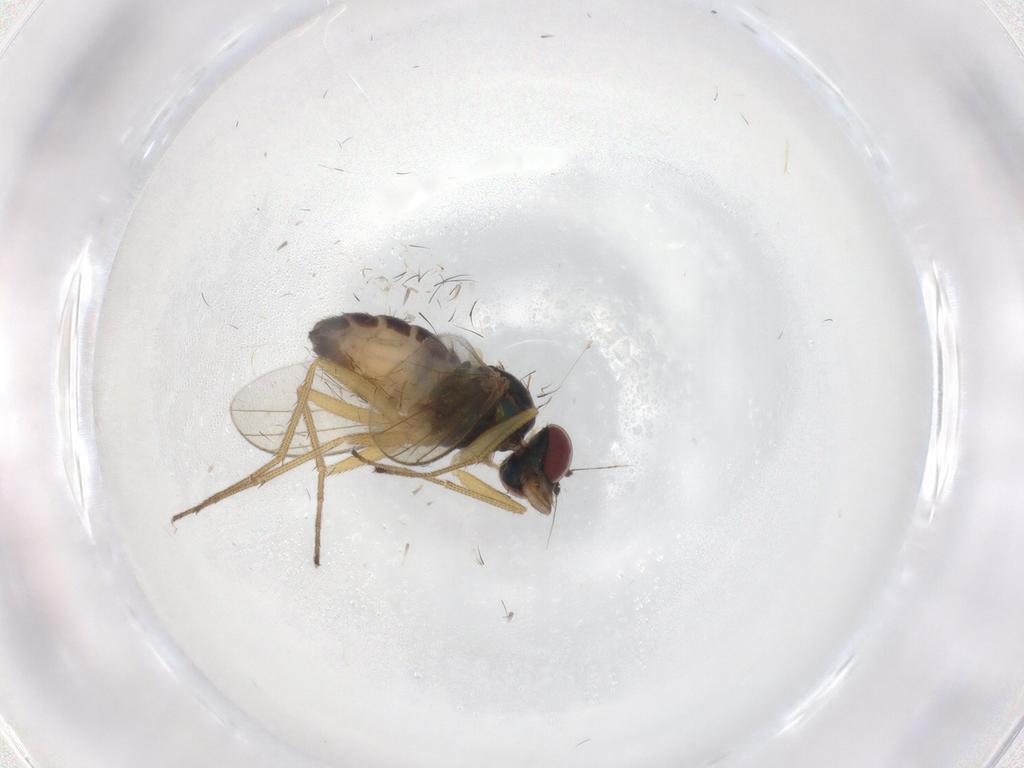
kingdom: Animalia
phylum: Arthropoda
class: Insecta
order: Diptera
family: Dolichopodidae
